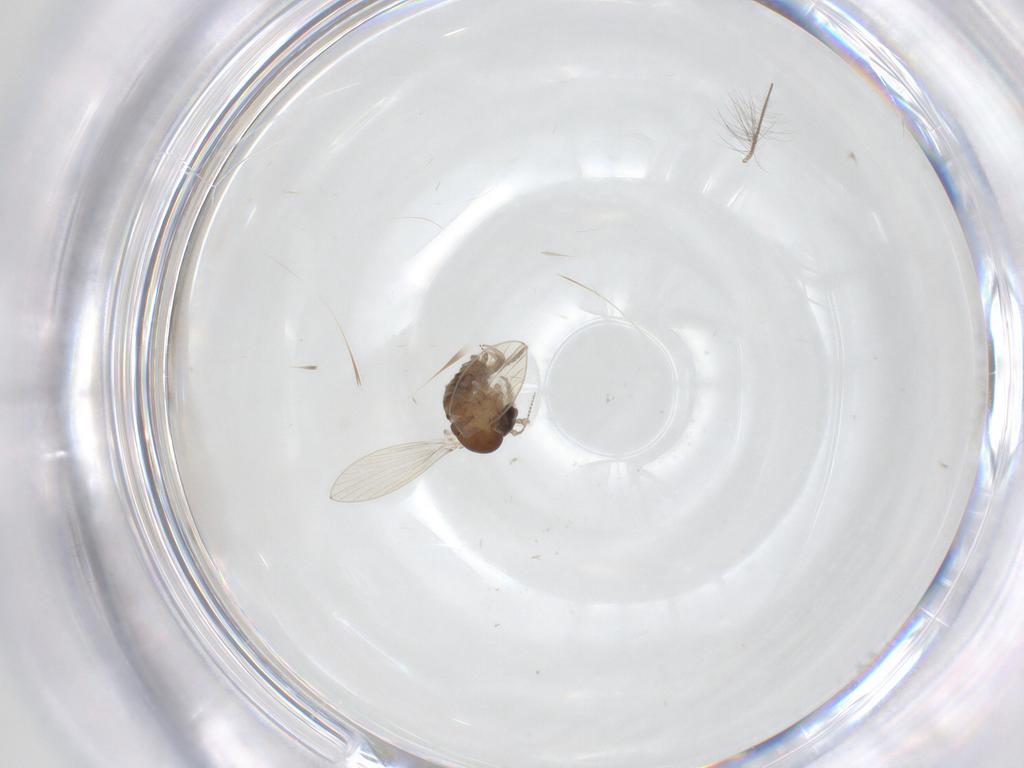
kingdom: Animalia
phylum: Arthropoda
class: Insecta
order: Diptera
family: Psychodidae
